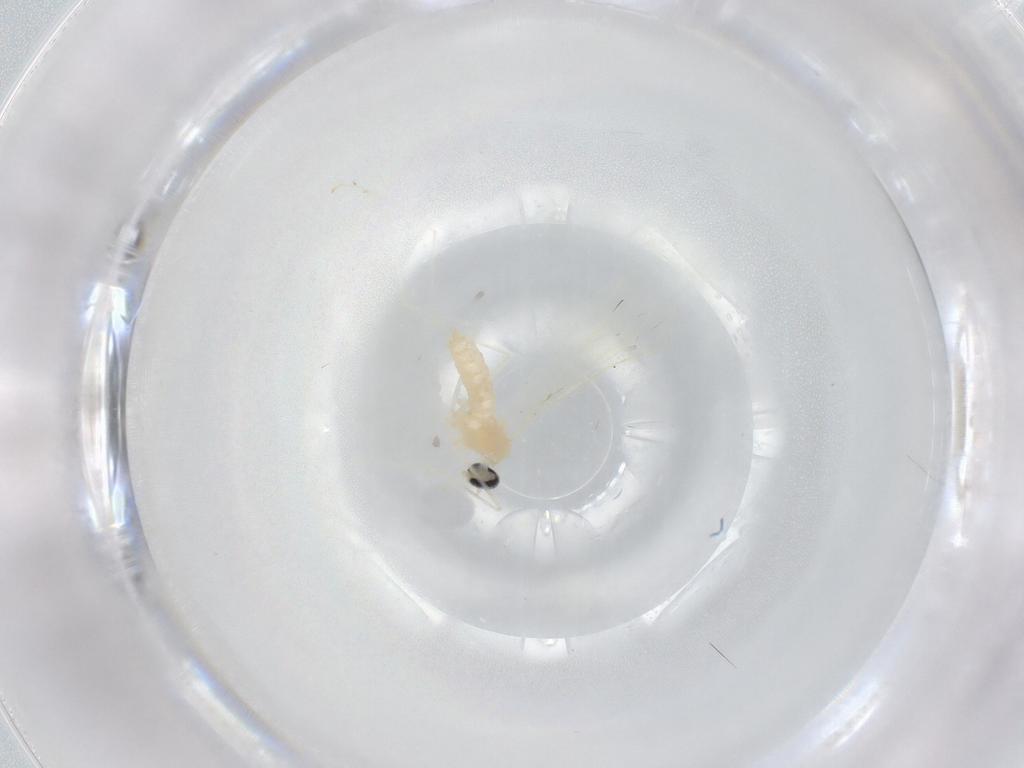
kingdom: Animalia
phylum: Arthropoda
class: Insecta
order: Diptera
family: Cecidomyiidae
